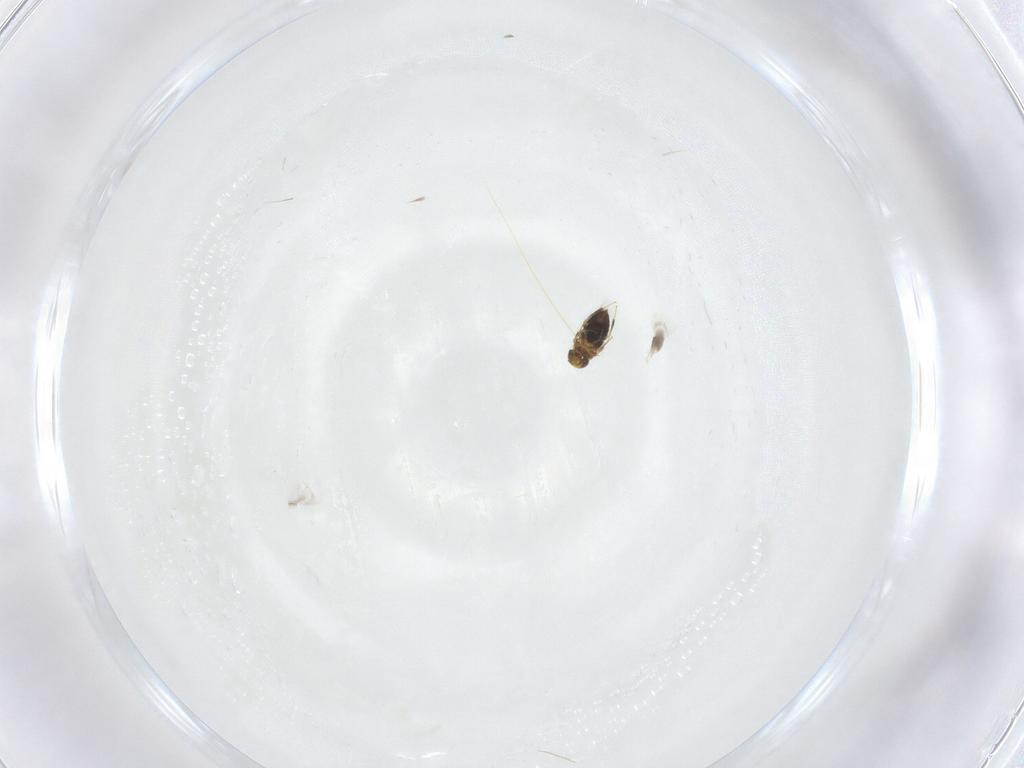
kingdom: Animalia
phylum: Arthropoda
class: Insecta
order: Hymenoptera
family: Signiphoridae
